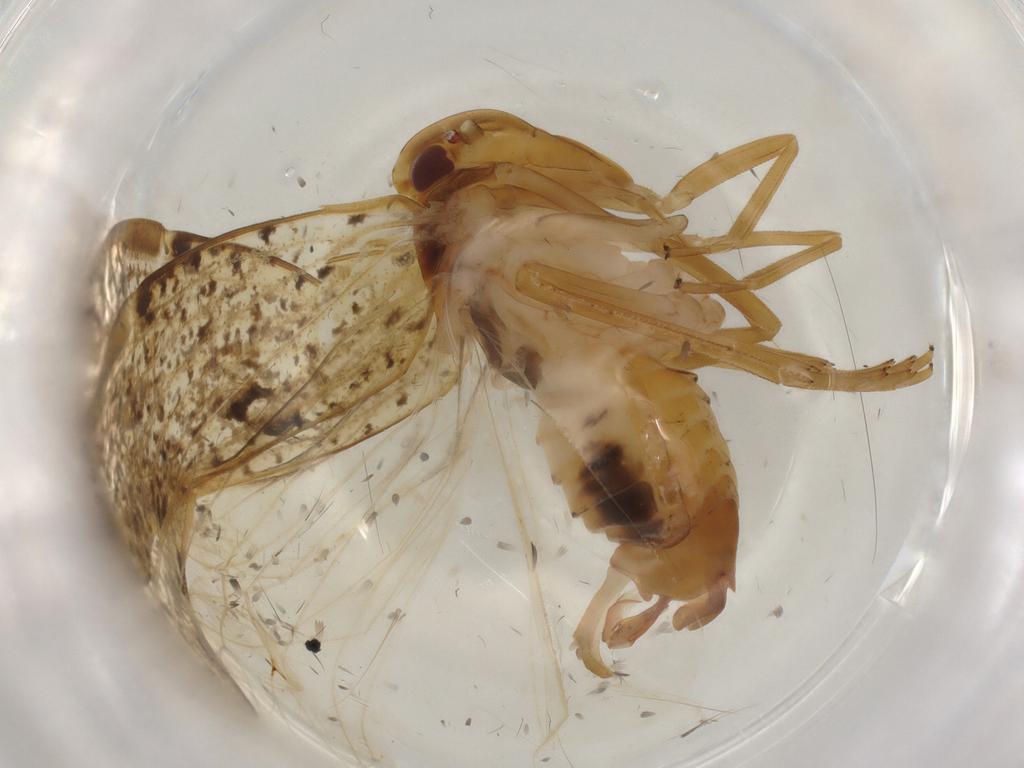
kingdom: Animalia
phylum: Arthropoda
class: Insecta
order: Hemiptera
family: Cixiidae
